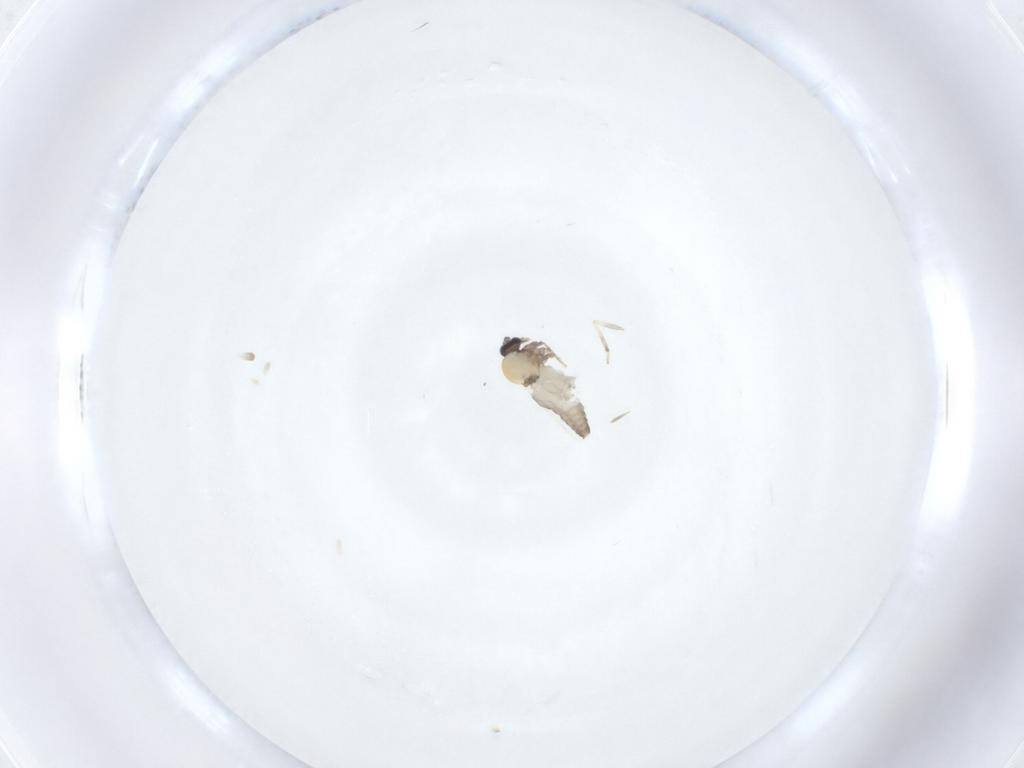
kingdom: Animalia
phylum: Arthropoda
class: Insecta
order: Diptera
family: Ceratopogonidae
